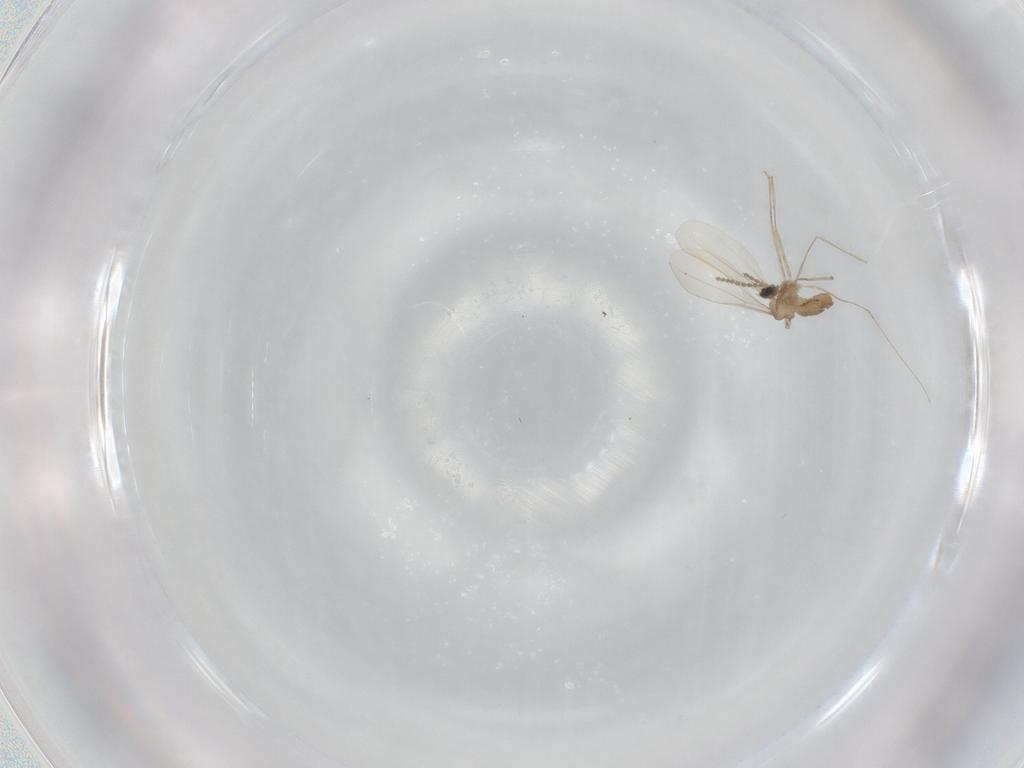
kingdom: Animalia
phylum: Arthropoda
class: Insecta
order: Diptera
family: Cecidomyiidae
